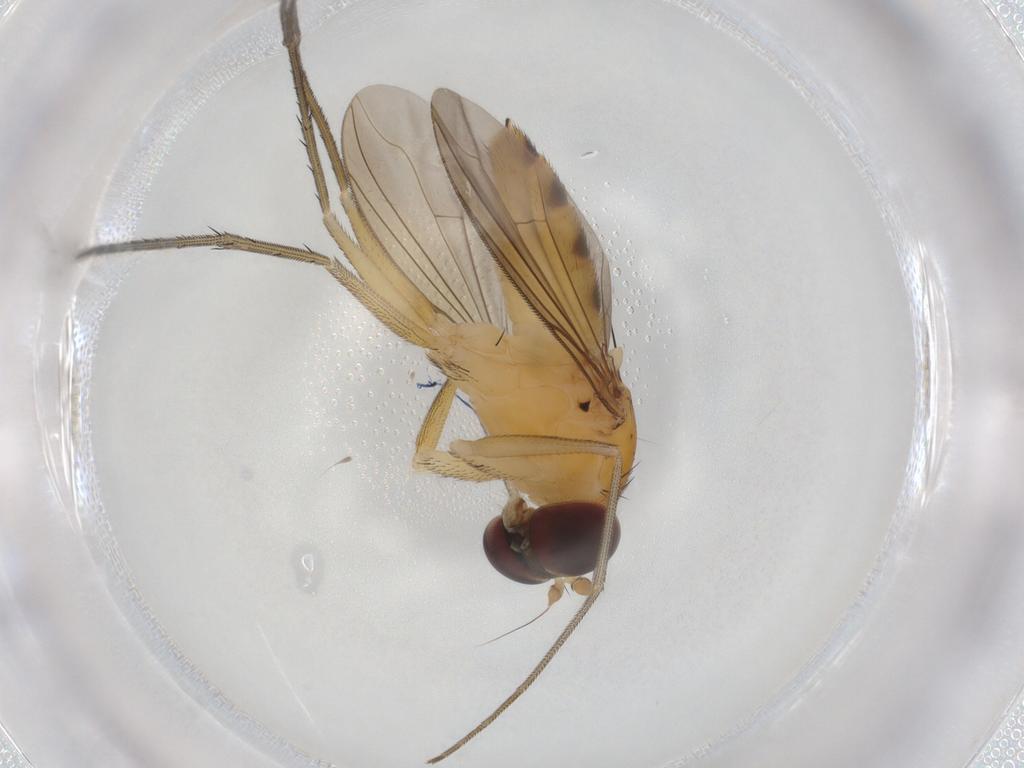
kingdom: Animalia
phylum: Arthropoda
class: Insecta
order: Diptera
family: Dolichopodidae
